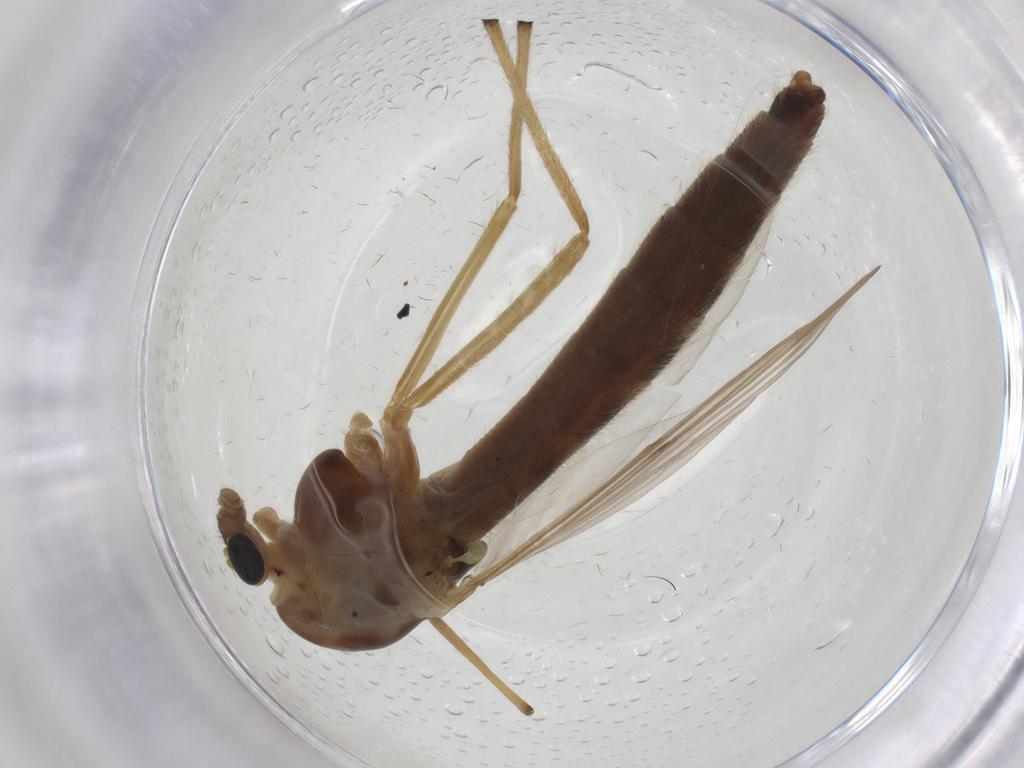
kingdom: Animalia
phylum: Arthropoda
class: Insecta
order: Diptera
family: Chironomidae
